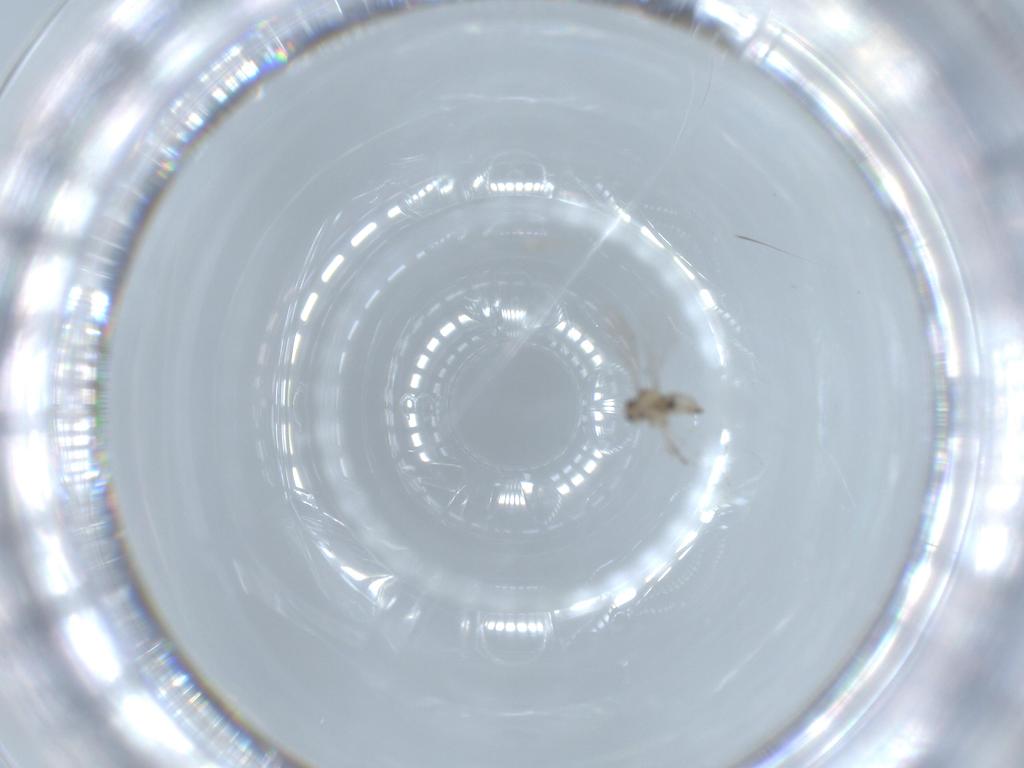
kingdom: Animalia
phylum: Arthropoda
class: Insecta
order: Diptera
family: Cecidomyiidae
